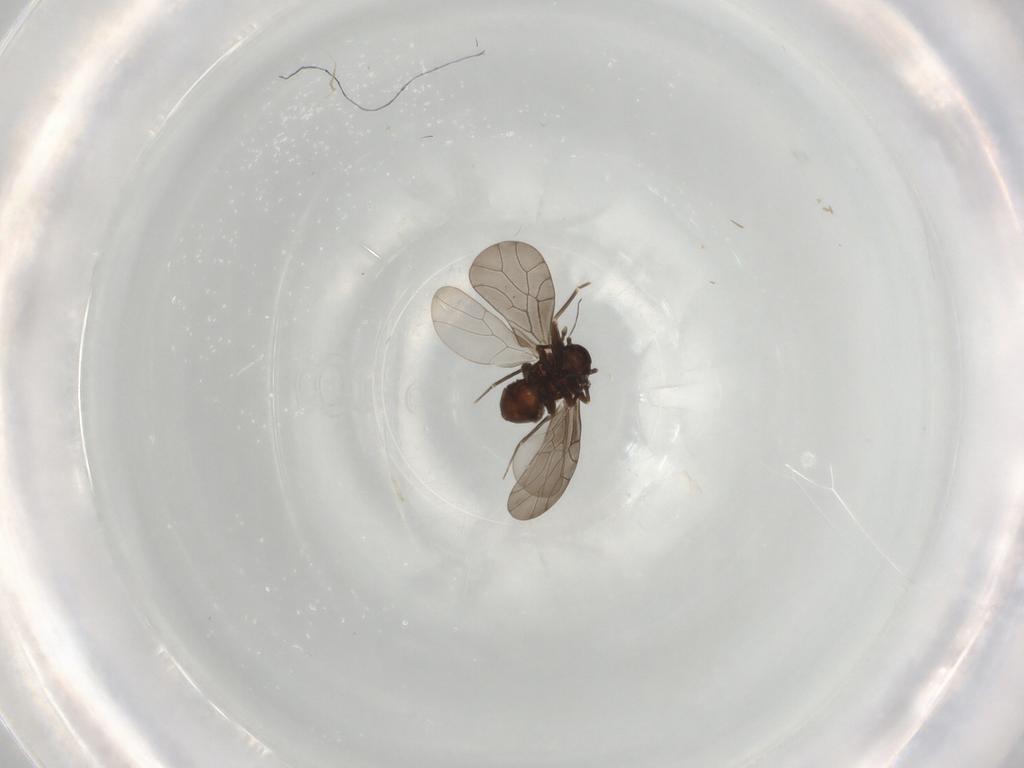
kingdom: Animalia
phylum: Arthropoda
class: Insecta
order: Psocodea
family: Lepidopsocidae
